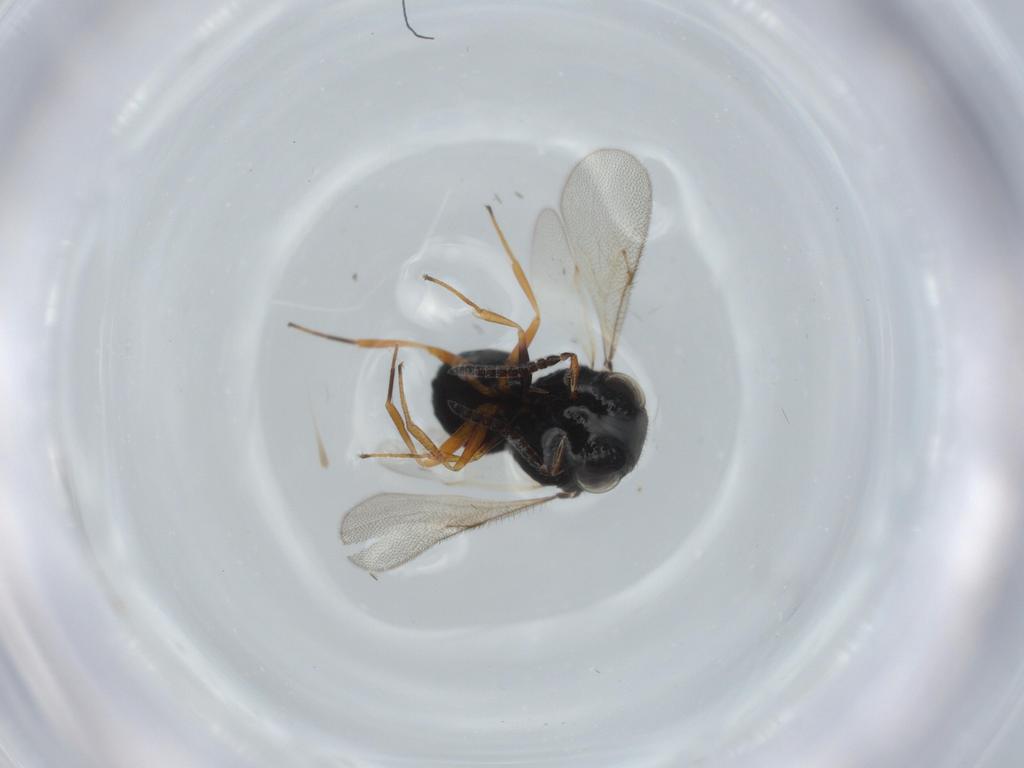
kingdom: Animalia
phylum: Arthropoda
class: Insecta
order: Hymenoptera
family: Scelionidae
